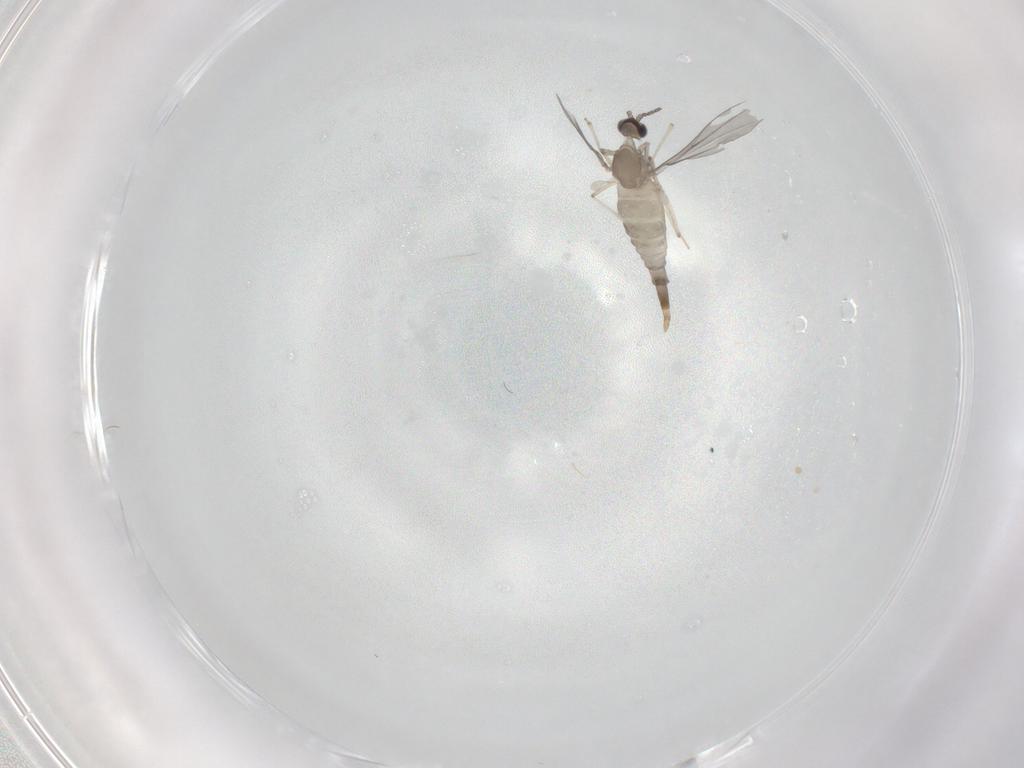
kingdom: Animalia
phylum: Arthropoda
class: Insecta
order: Diptera
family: Cecidomyiidae
